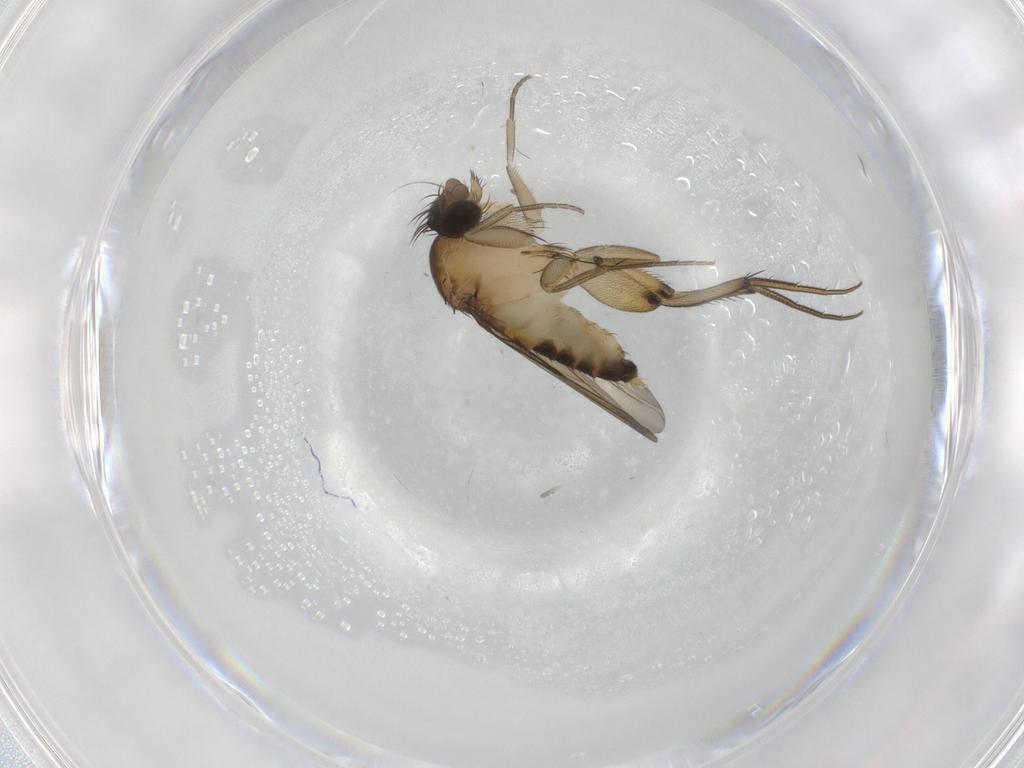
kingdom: Animalia
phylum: Arthropoda
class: Insecta
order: Diptera
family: Phoridae
